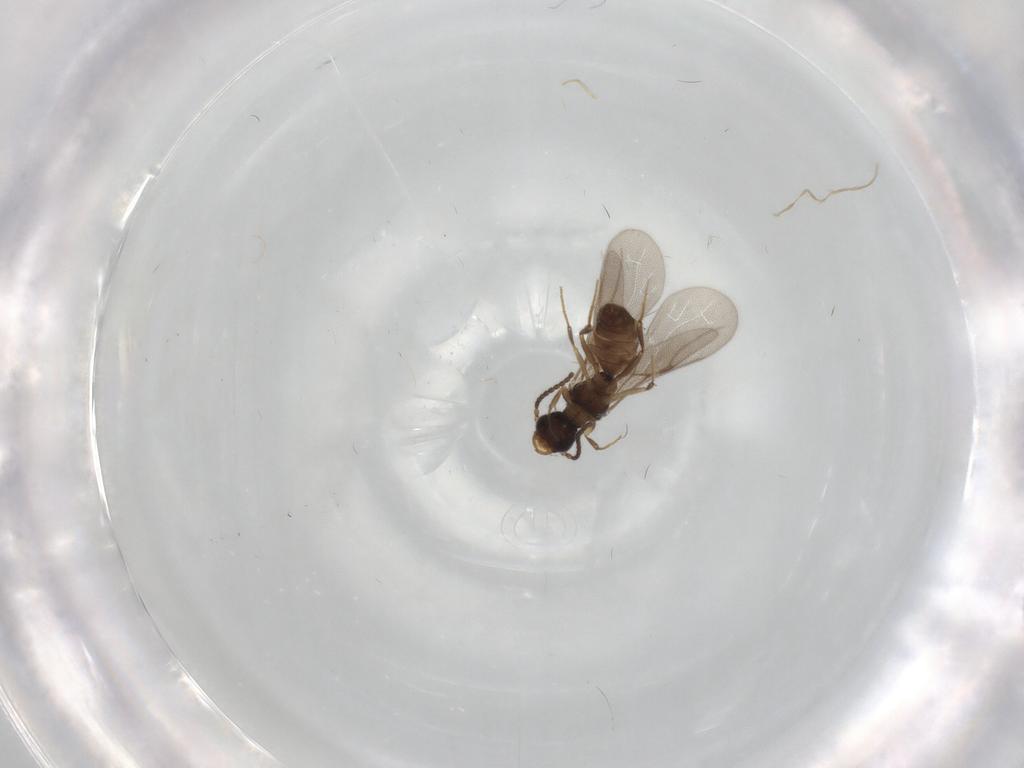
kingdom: Animalia
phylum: Arthropoda
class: Insecta
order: Hymenoptera
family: Bethylidae
